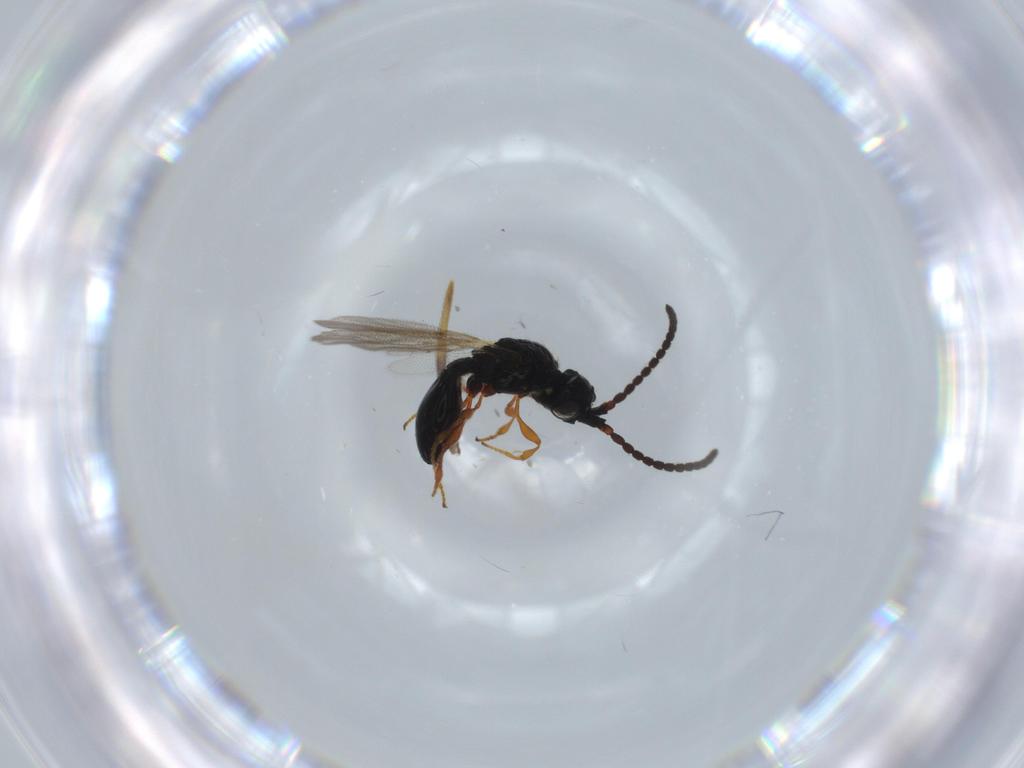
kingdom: Animalia
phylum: Arthropoda
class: Insecta
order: Hymenoptera
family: Diapriidae
